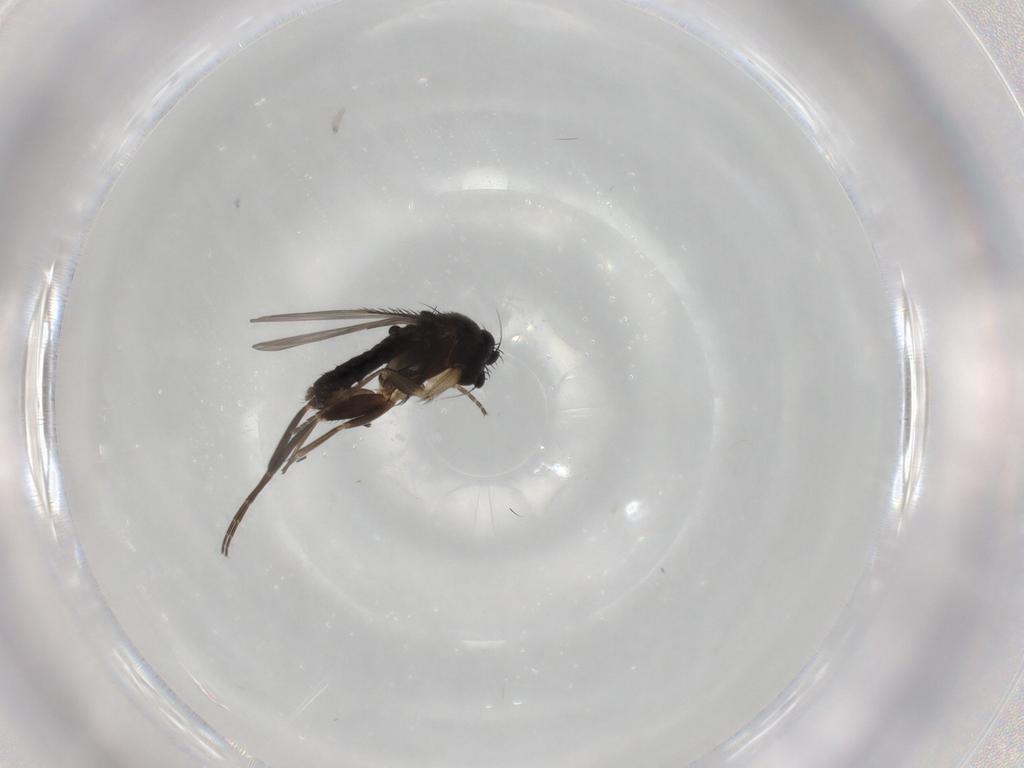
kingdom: Animalia
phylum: Arthropoda
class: Insecta
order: Diptera
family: Phoridae
